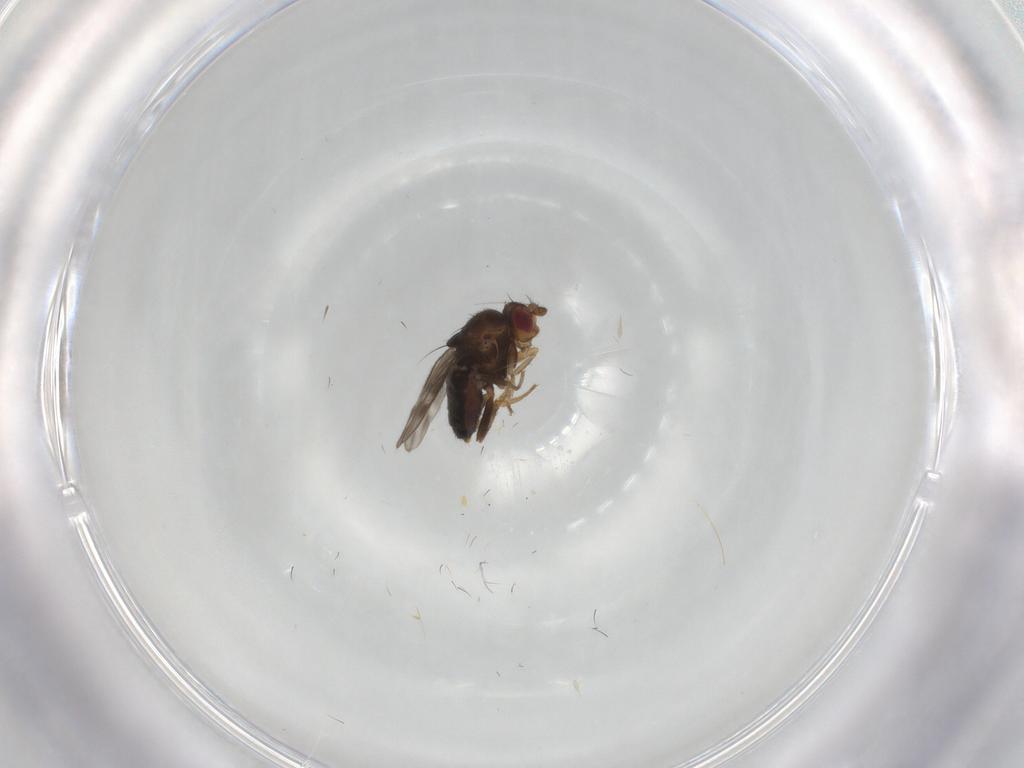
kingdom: Animalia
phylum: Arthropoda
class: Insecta
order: Diptera
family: Sphaeroceridae
